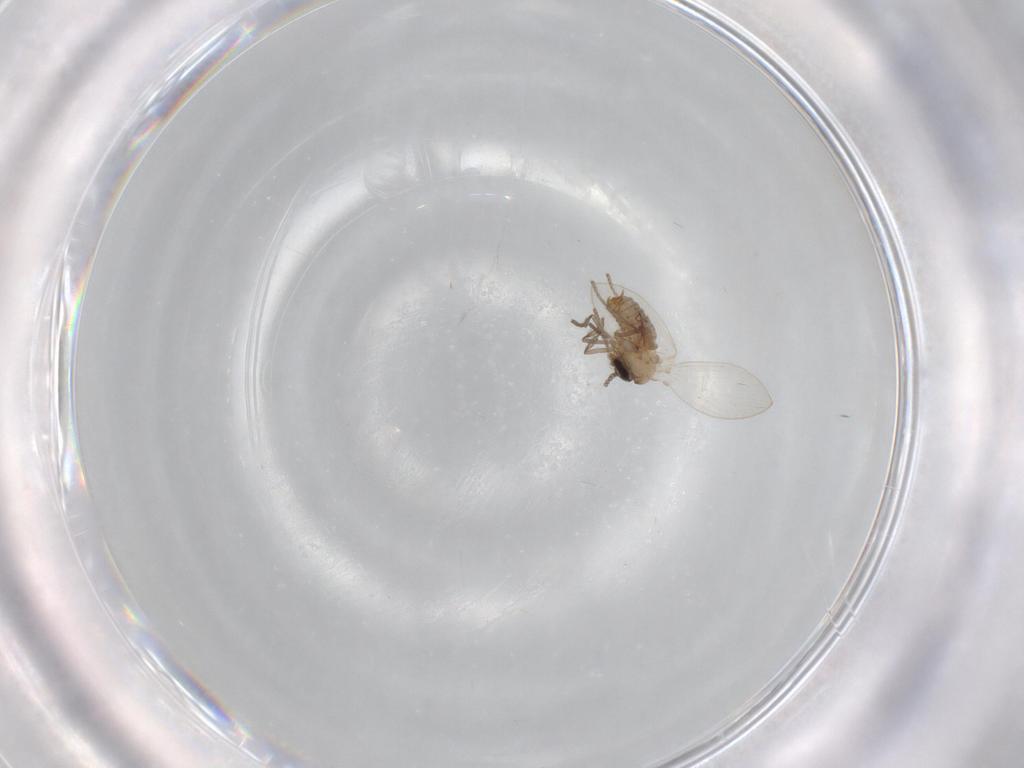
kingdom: Animalia
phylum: Arthropoda
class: Insecta
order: Diptera
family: Psychodidae
